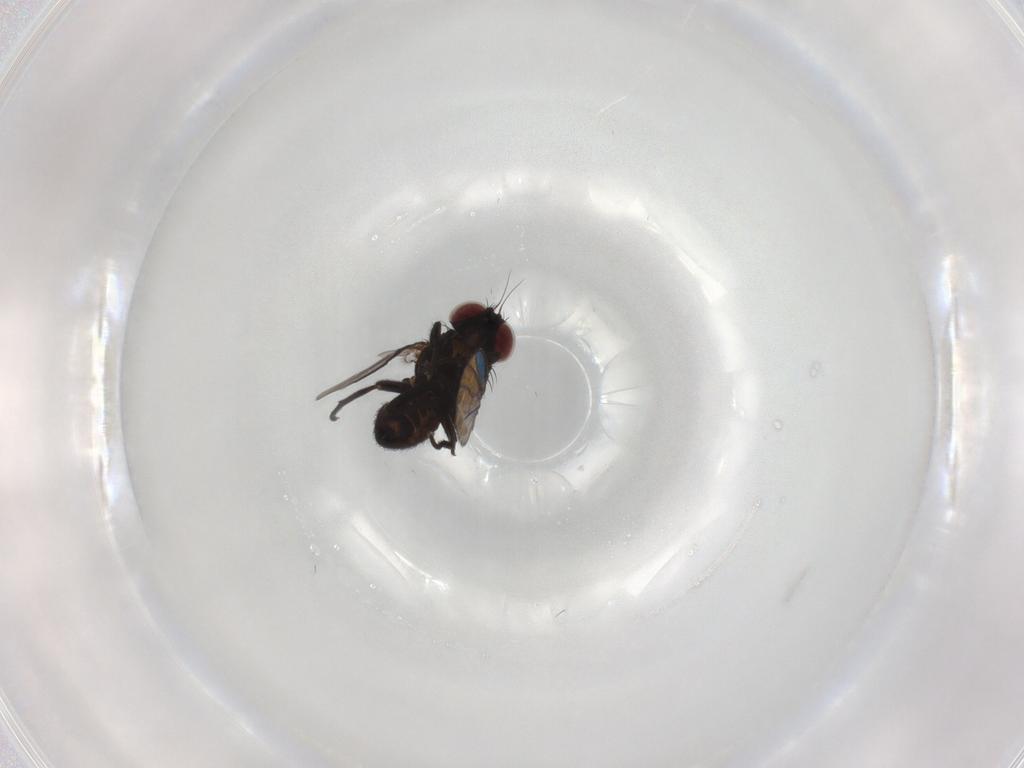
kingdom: Animalia
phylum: Arthropoda
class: Insecta
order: Diptera
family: Agromyzidae
